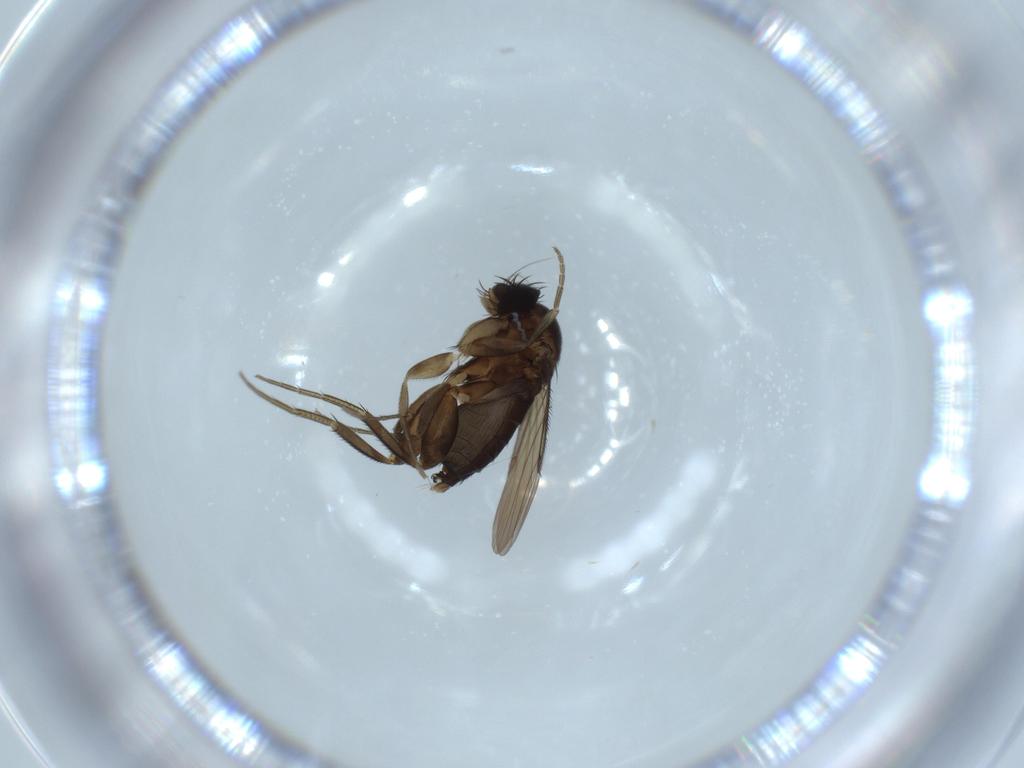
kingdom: Animalia
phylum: Arthropoda
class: Insecta
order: Diptera
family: Phoridae
